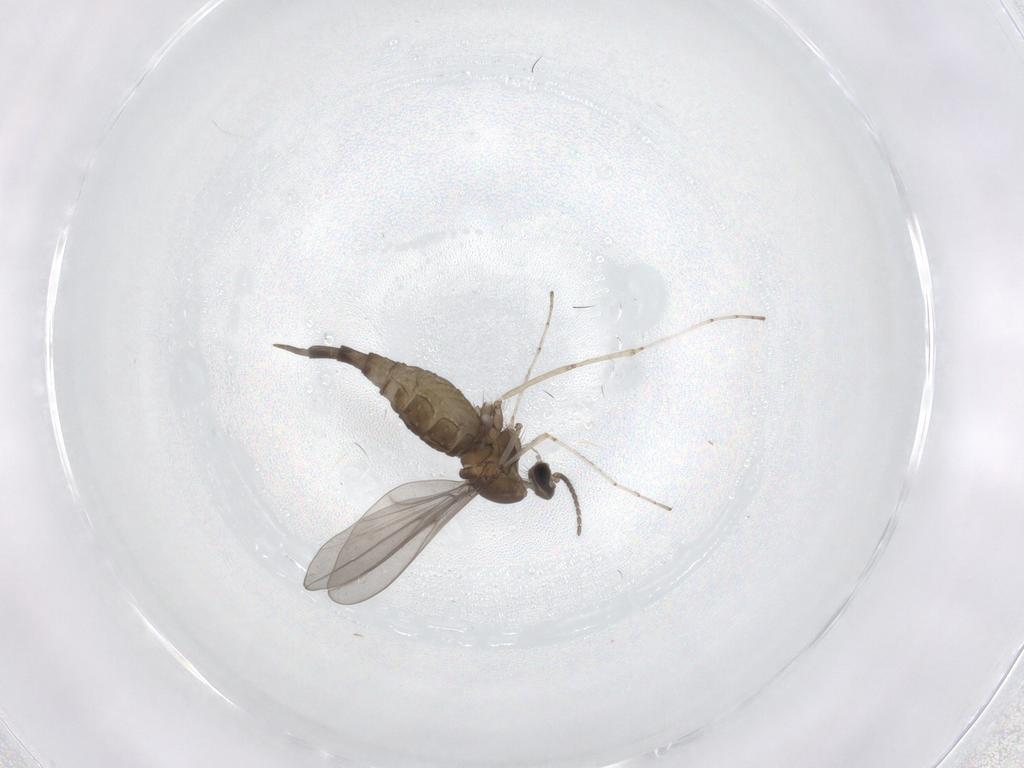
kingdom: Animalia
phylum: Arthropoda
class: Insecta
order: Diptera
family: Cecidomyiidae
